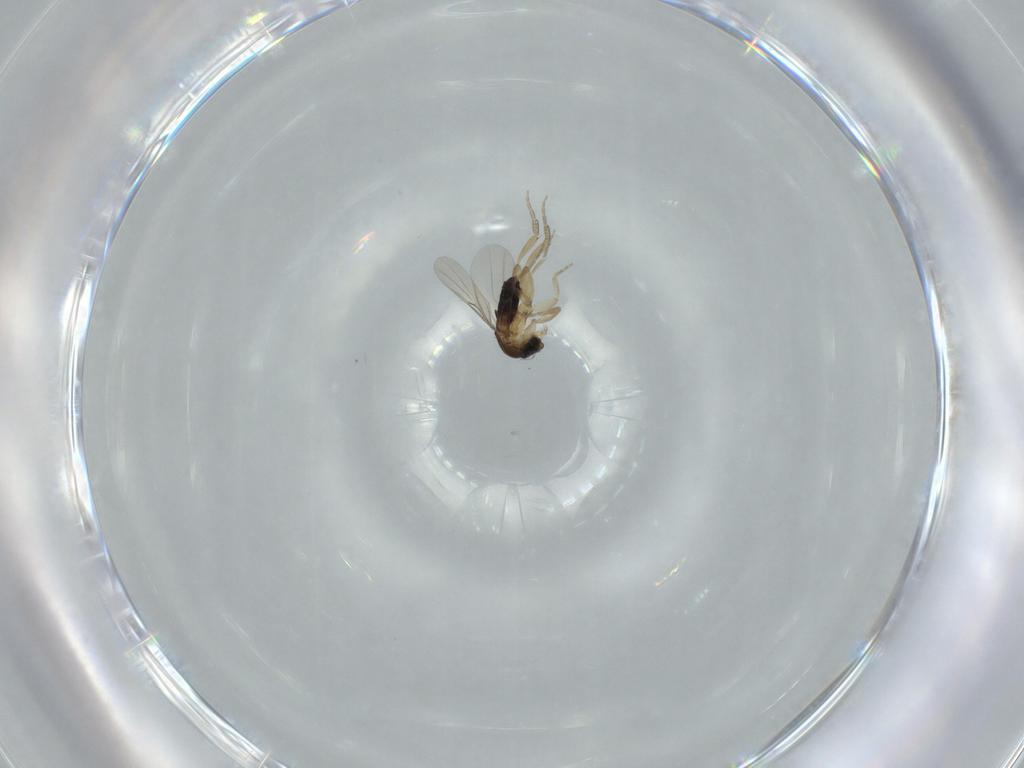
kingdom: Animalia
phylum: Arthropoda
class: Insecta
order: Diptera
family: Phoridae
